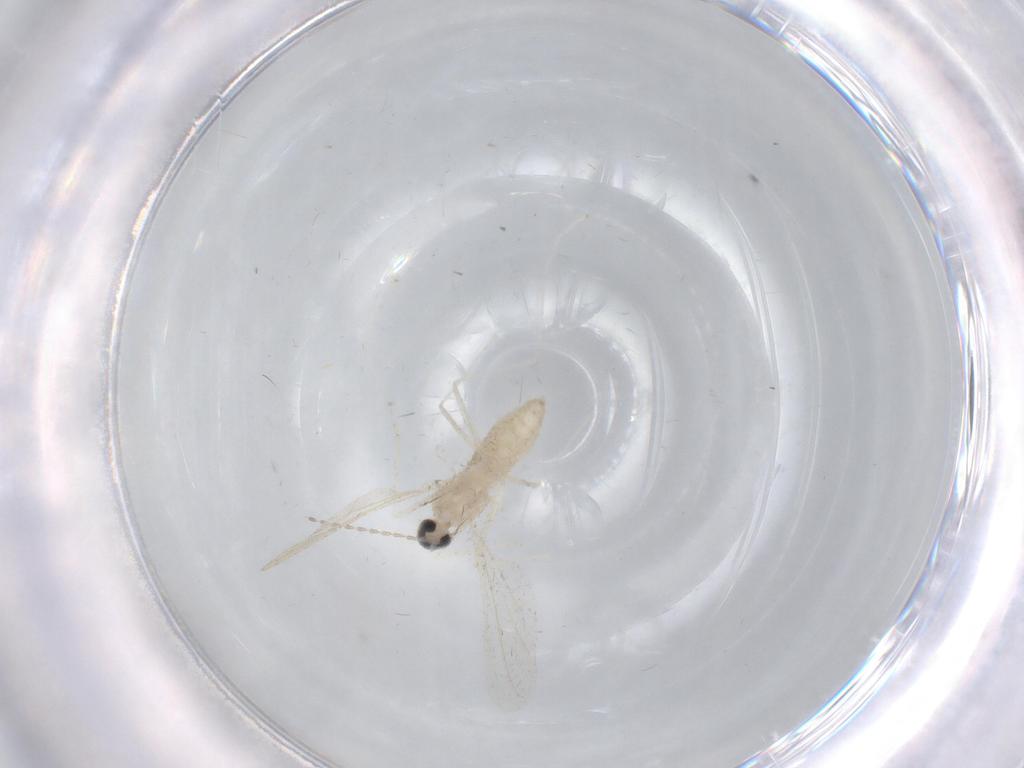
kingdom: Animalia
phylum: Arthropoda
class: Insecta
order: Diptera
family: Cecidomyiidae
